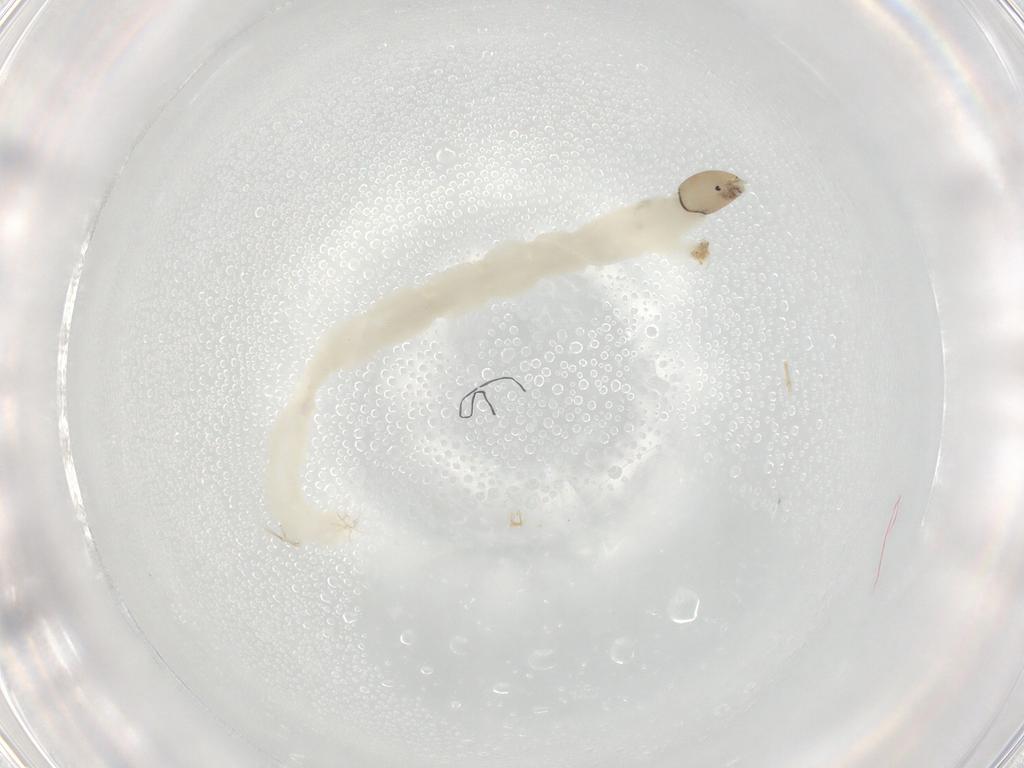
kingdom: Animalia
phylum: Arthropoda
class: Insecta
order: Diptera
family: Chironomidae
